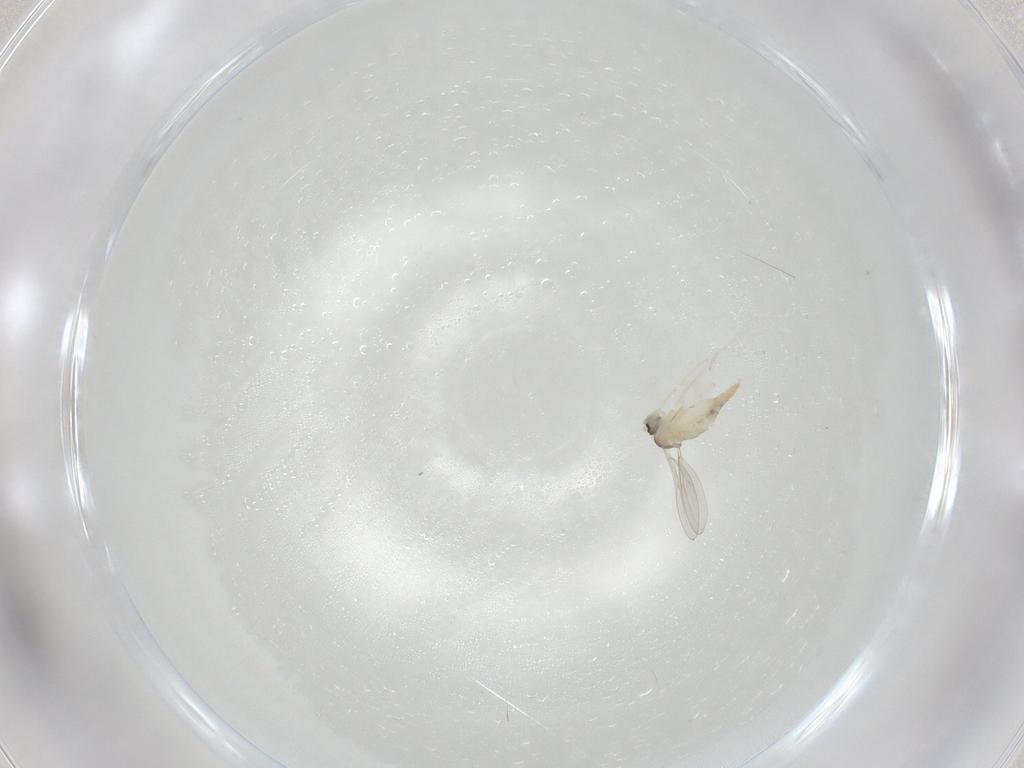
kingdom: Animalia
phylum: Arthropoda
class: Insecta
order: Diptera
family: Cecidomyiidae
